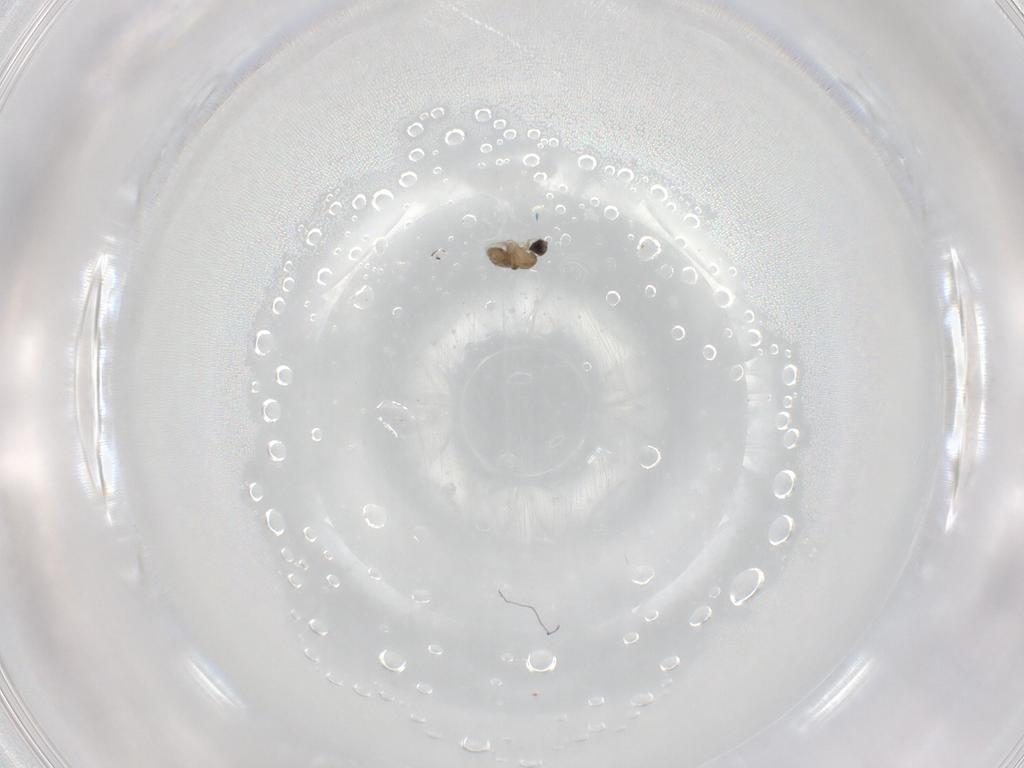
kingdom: Animalia
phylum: Arthropoda
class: Insecta
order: Diptera
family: Cecidomyiidae
